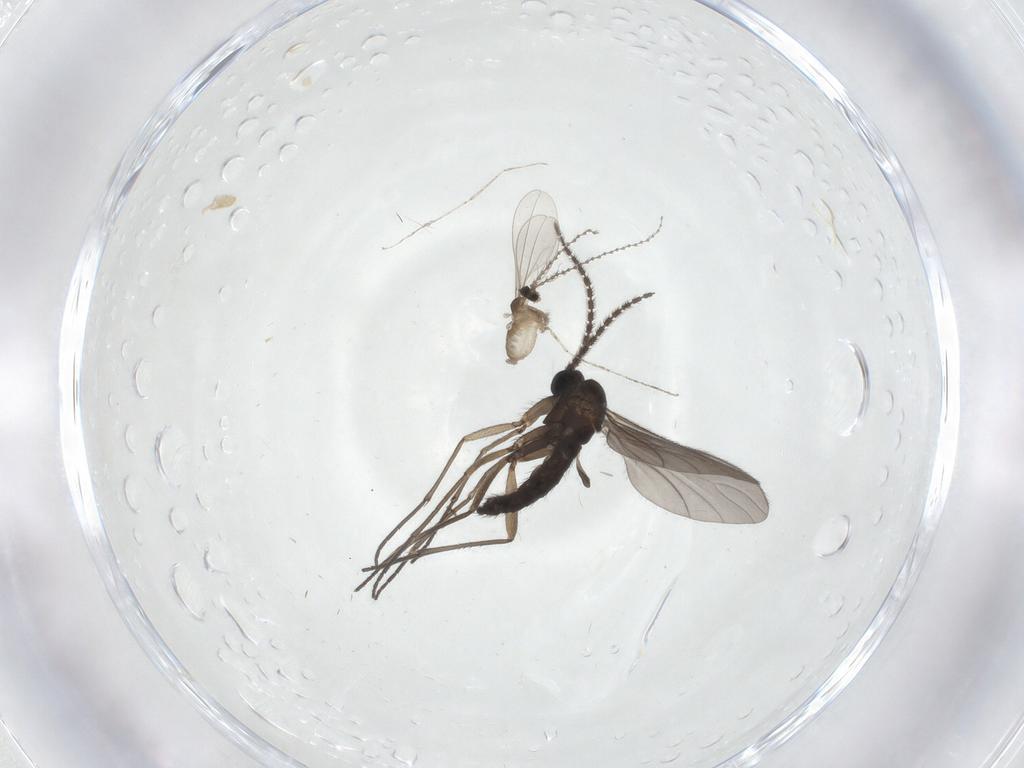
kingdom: Animalia
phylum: Arthropoda
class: Insecta
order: Diptera
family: Sciaridae
